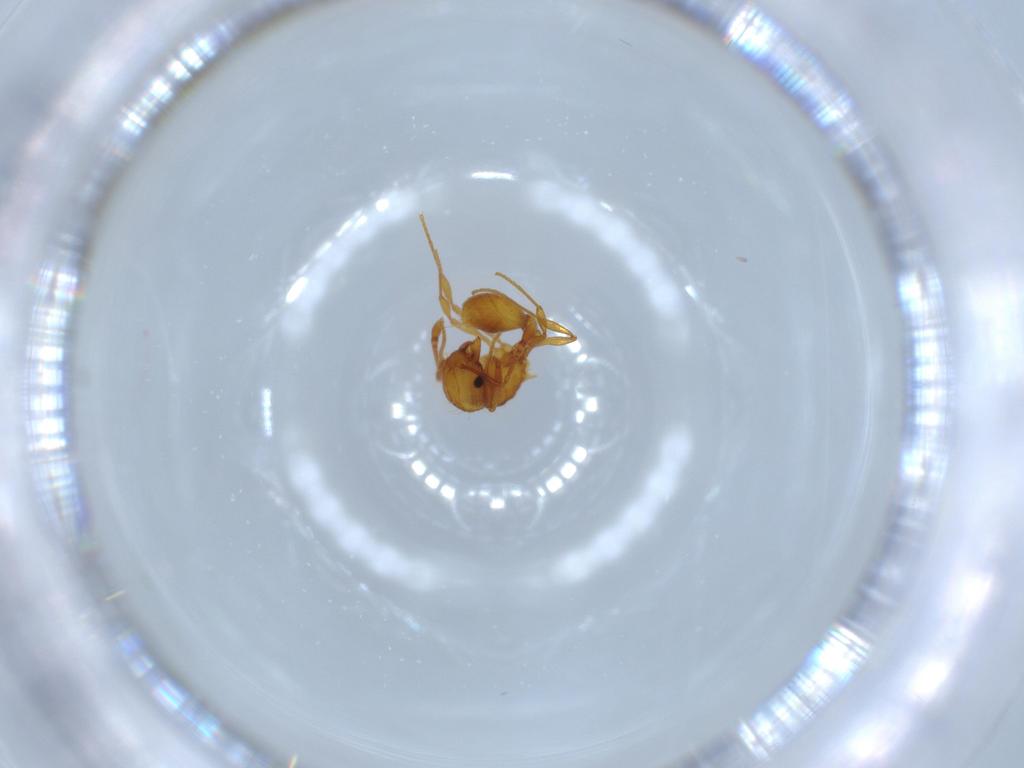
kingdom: Animalia
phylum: Arthropoda
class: Insecta
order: Hymenoptera
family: Formicidae
